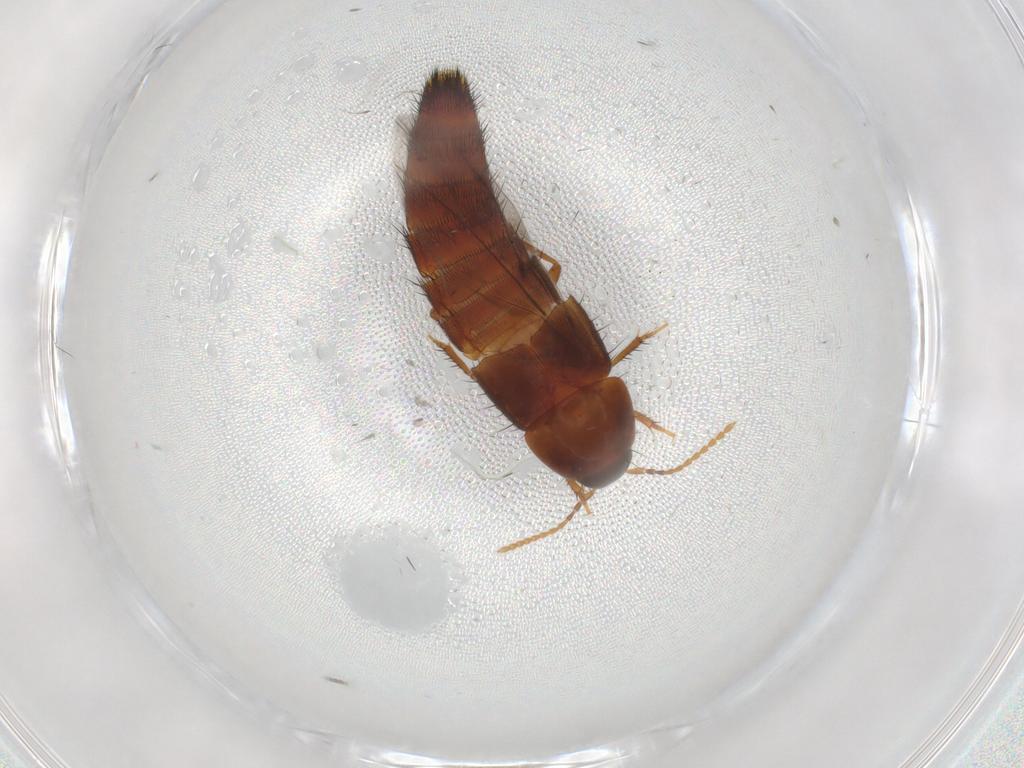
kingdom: Animalia
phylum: Arthropoda
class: Insecta
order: Coleoptera
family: Staphylinidae
